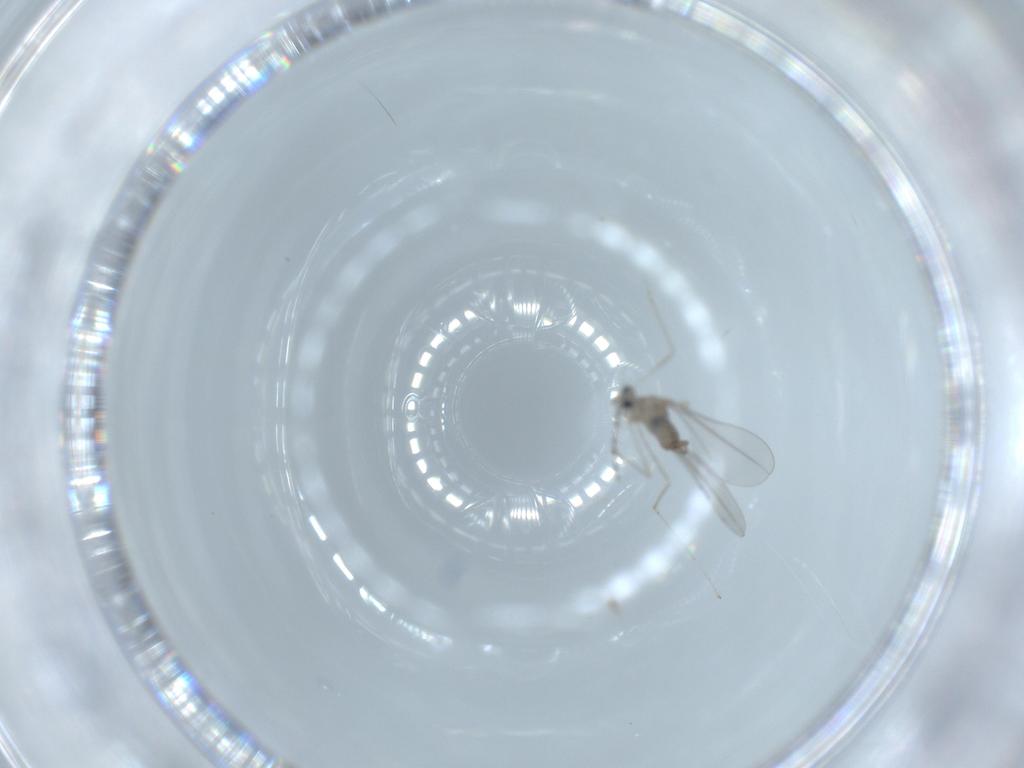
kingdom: Animalia
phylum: Arthropoda
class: Insecta
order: Diptera
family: Cecidomyiidae
